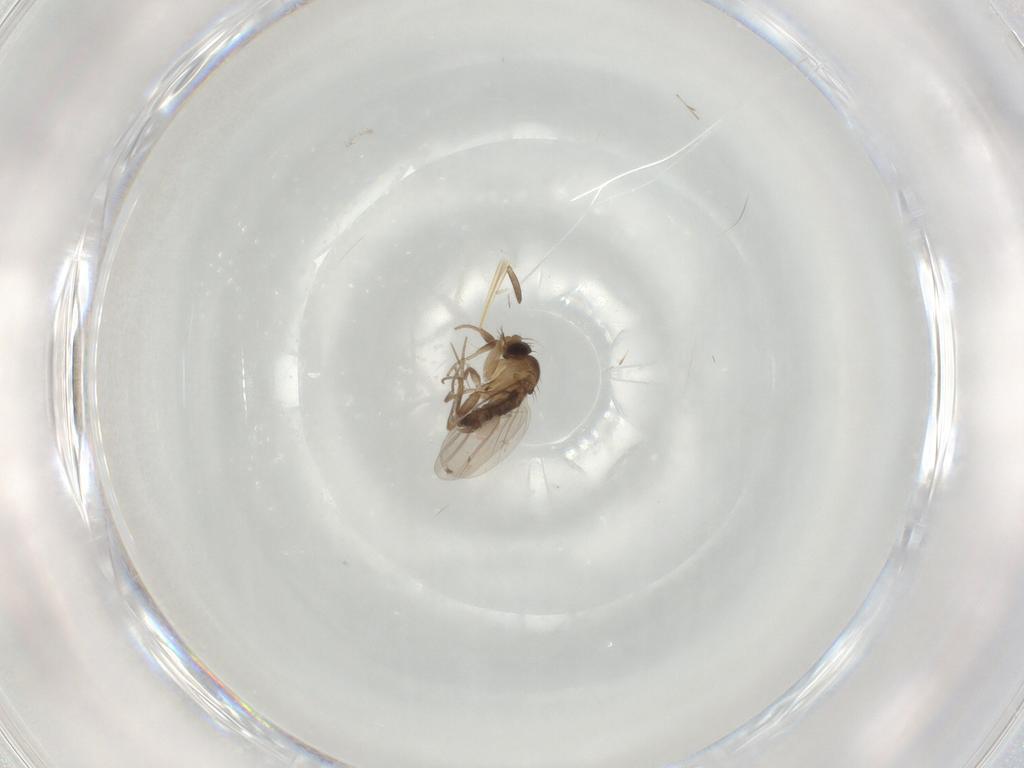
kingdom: Animalia
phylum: Arthropoda
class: Insecta
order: Diptera
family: Phoridae
